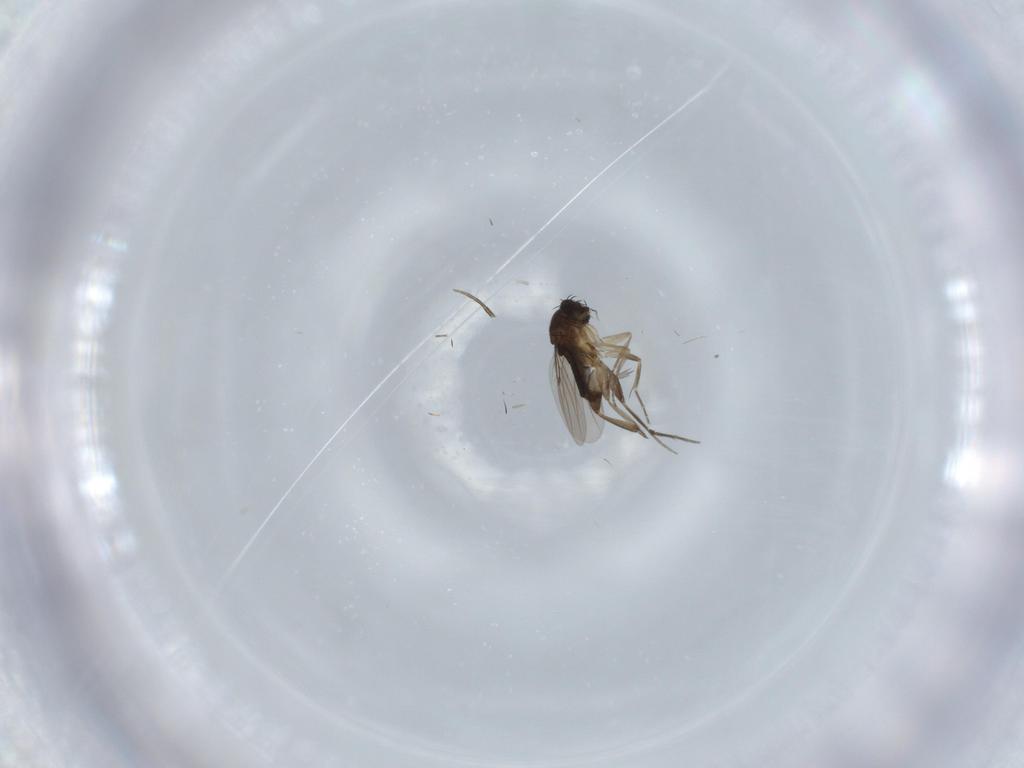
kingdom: Animalia
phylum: Arthropoda
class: Insecta
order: Diptera
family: Phoridae
